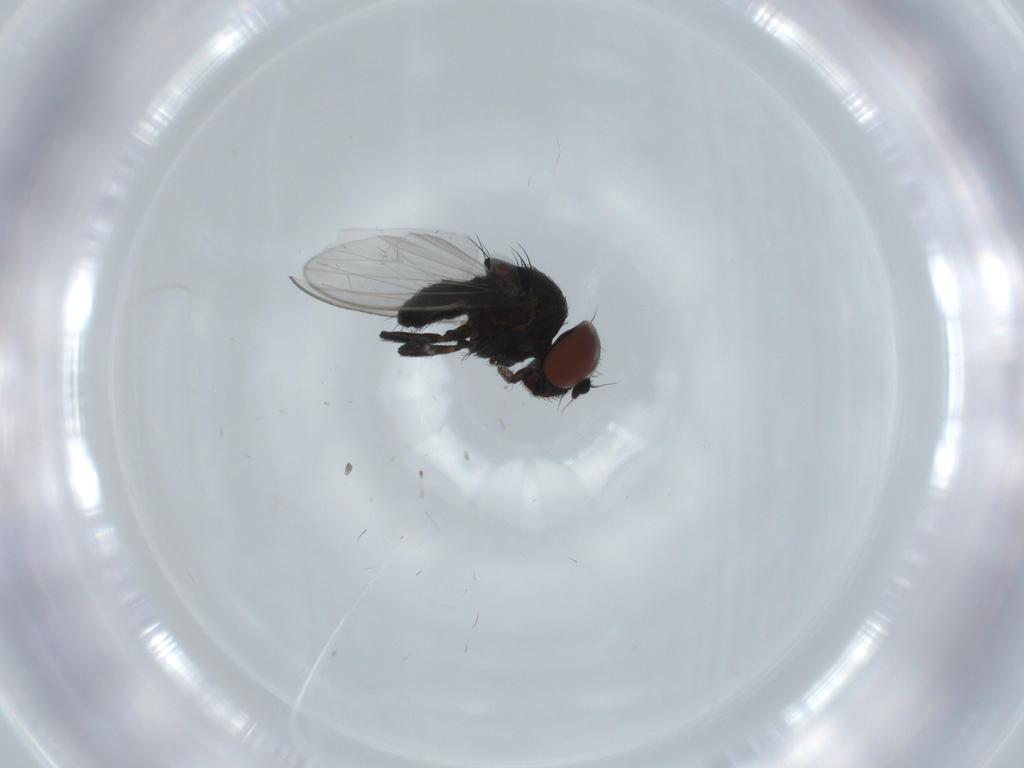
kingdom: Animalia
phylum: Arthropoda
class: Insecta
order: Diptera
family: Milichiidae
